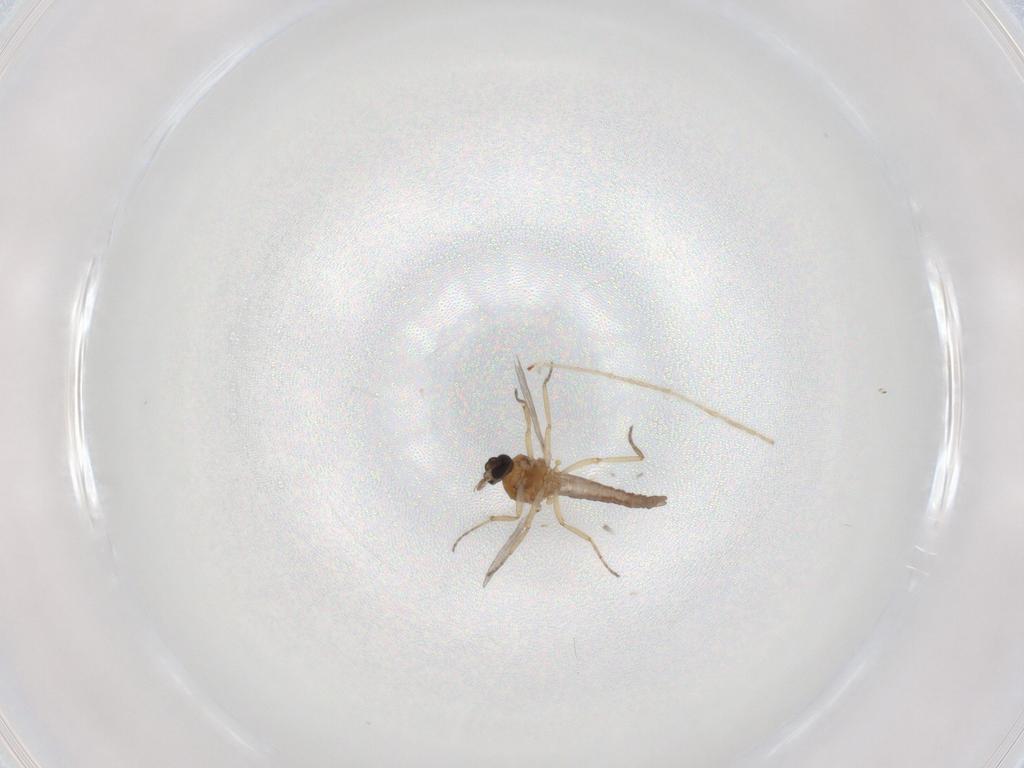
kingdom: Animalia
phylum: Arthropoda
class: Insecta
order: Diptera
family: Chironomidae
